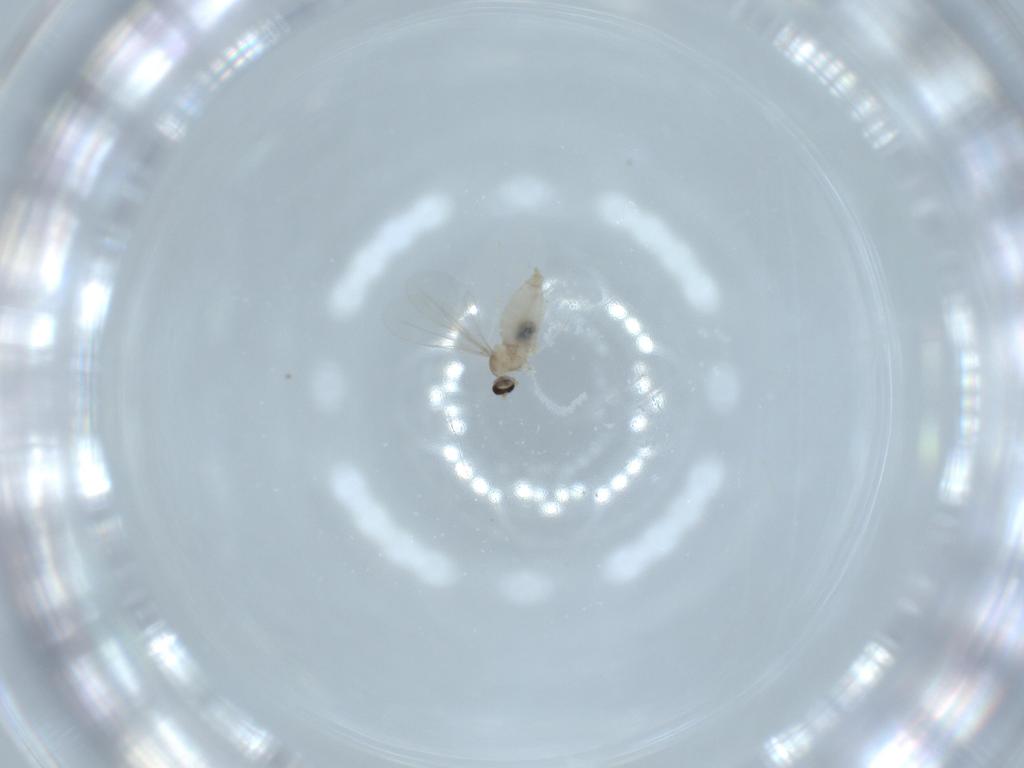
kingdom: Animalia
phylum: Arthropoda
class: Insecta
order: Diptera
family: Cecidomyiidae
